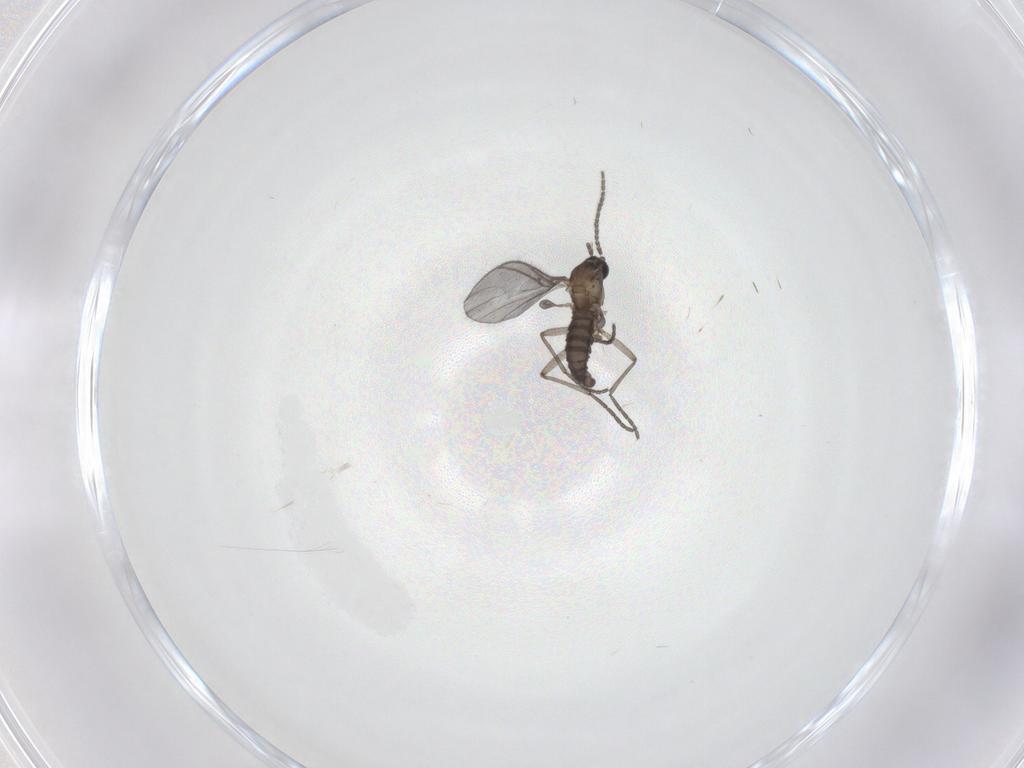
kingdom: Animalia
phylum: Arthropoda
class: Insecta
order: Diptera
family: Sciaridae
